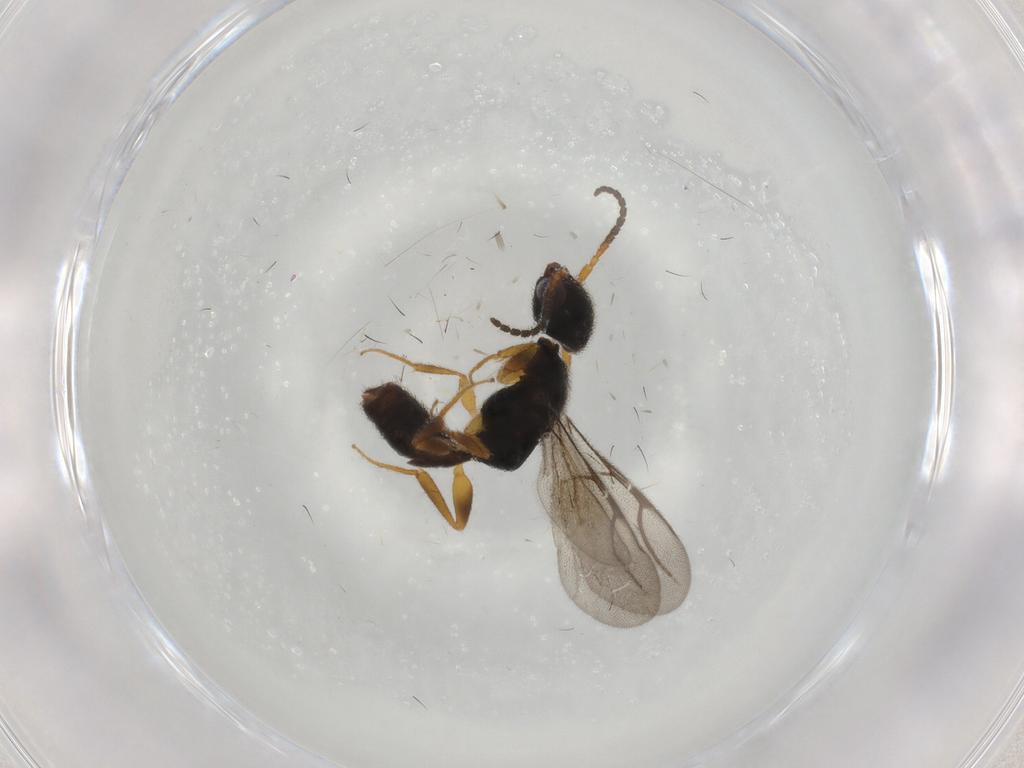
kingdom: Animalia
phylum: Arthropoda
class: Insecta
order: Hymenoptera
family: Bethylidae
